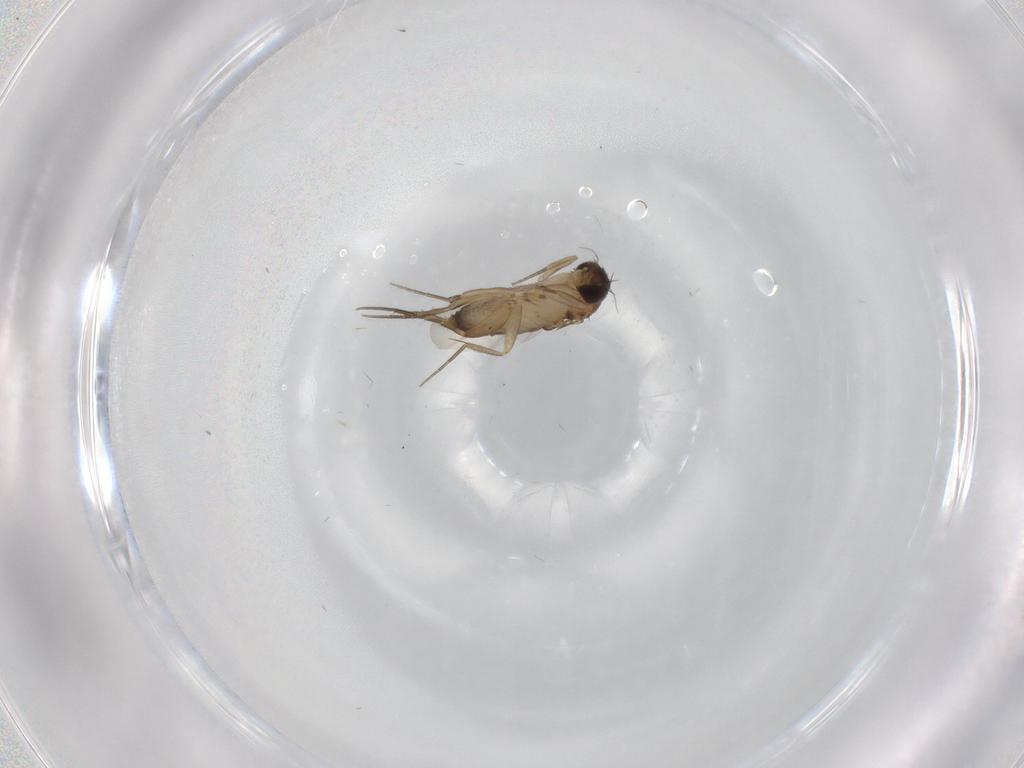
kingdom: Animalia
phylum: Arthropoda
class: Insecta
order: Diptera
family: Phoridae
